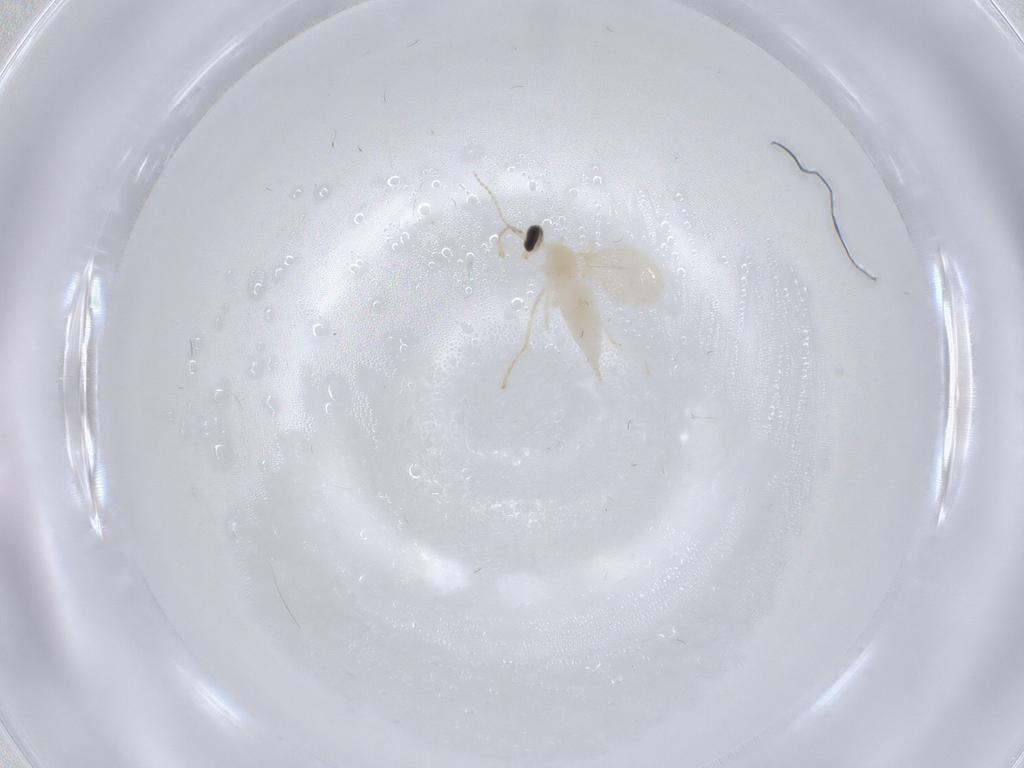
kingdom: Animalia
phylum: Arthropoda
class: Insecta
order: Diptera
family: Cecidomyiidae
